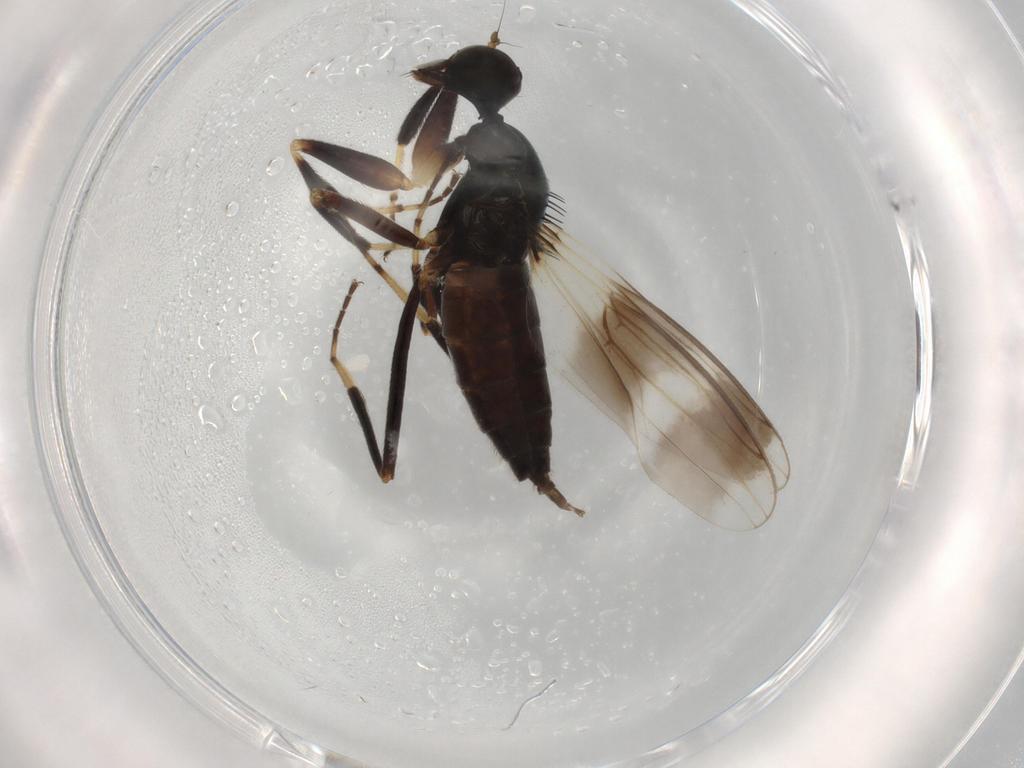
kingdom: Animalia
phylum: Arthropoda
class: Insecta
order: Diptera
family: Hybotidae
